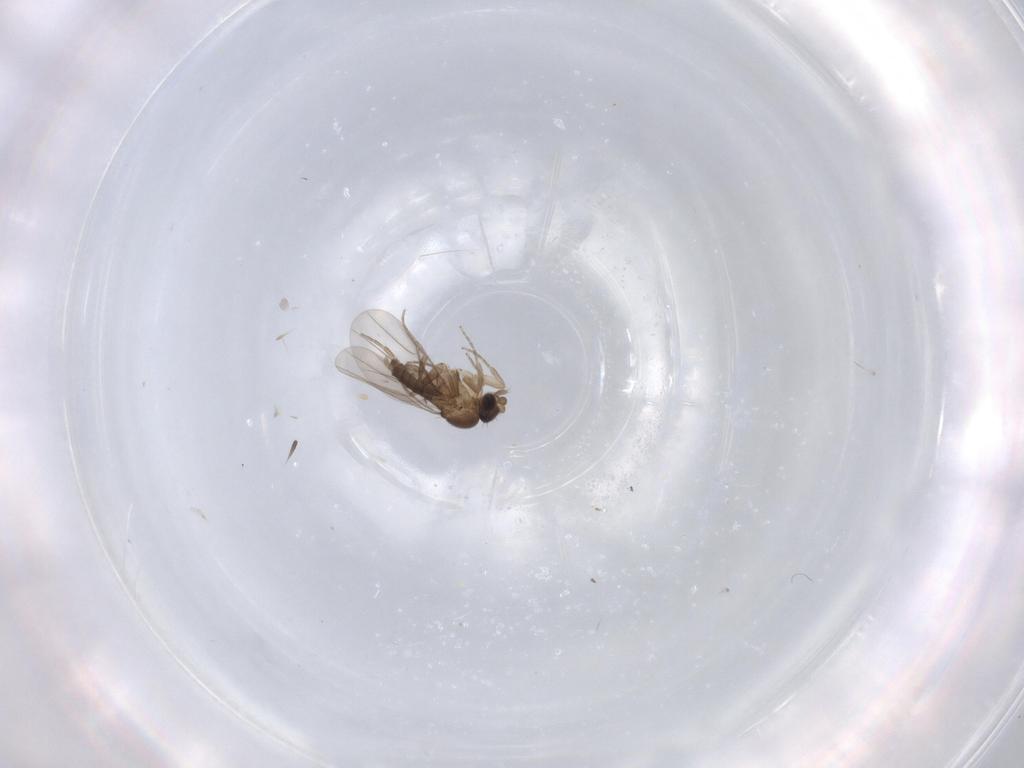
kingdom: Animalia
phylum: Arthropoda
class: Insecta
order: Diptera
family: Phoridae
